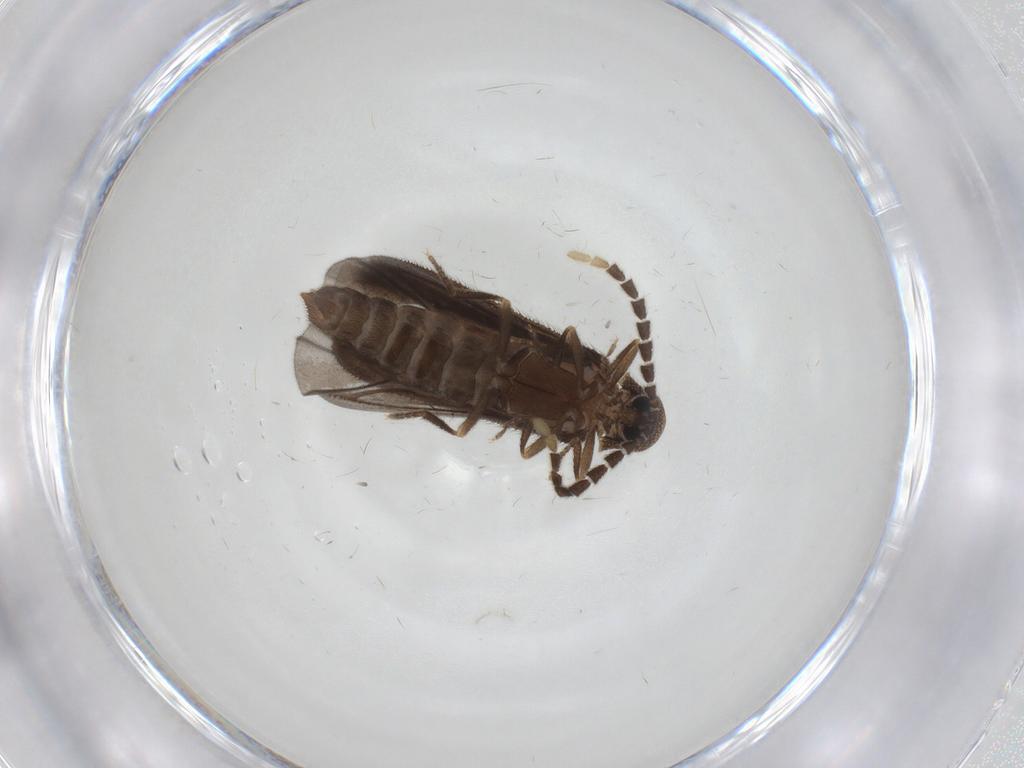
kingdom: Animalia
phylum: Arthropoda
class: Insecta
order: Coleoptera
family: Lycidae
